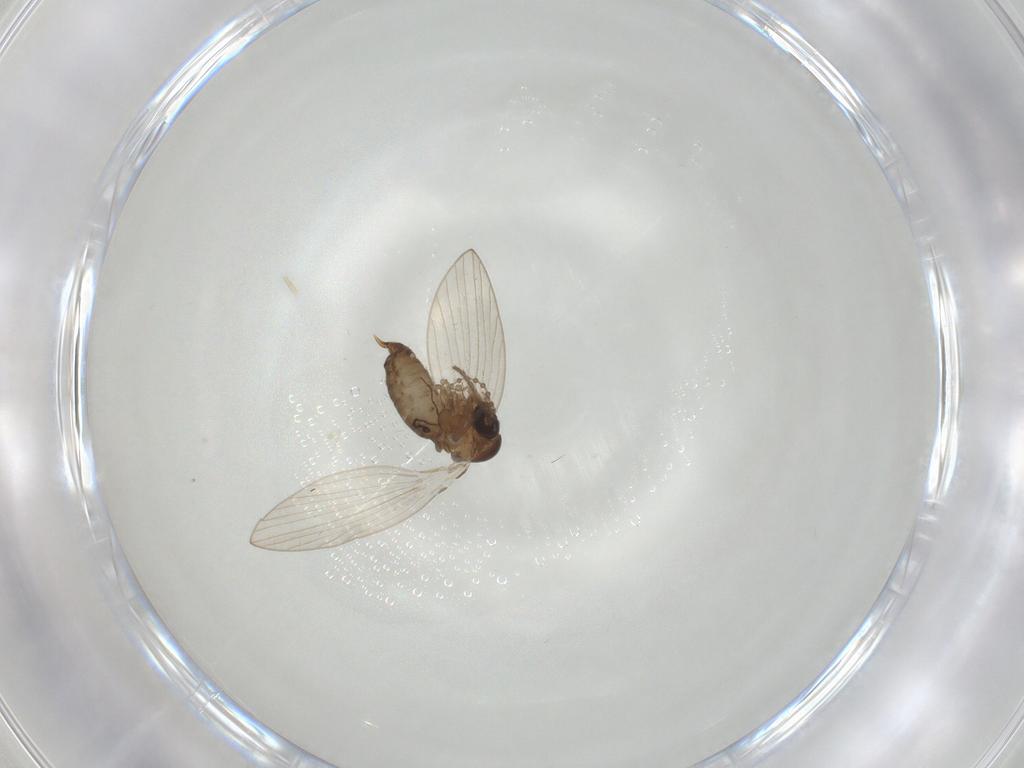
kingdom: Animalia
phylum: Arthropoda
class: Insecta
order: Diptera
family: Psychodidae
